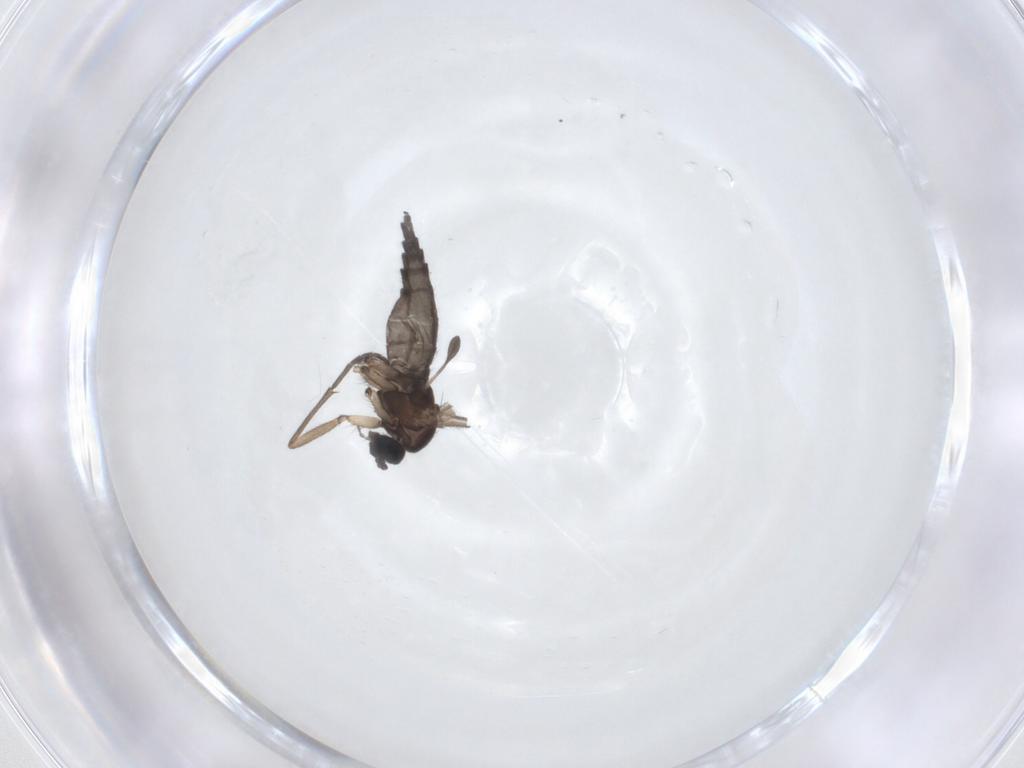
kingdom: Animalia
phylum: Arthropoda
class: Insecta
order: Diptera
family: Sciaridae
